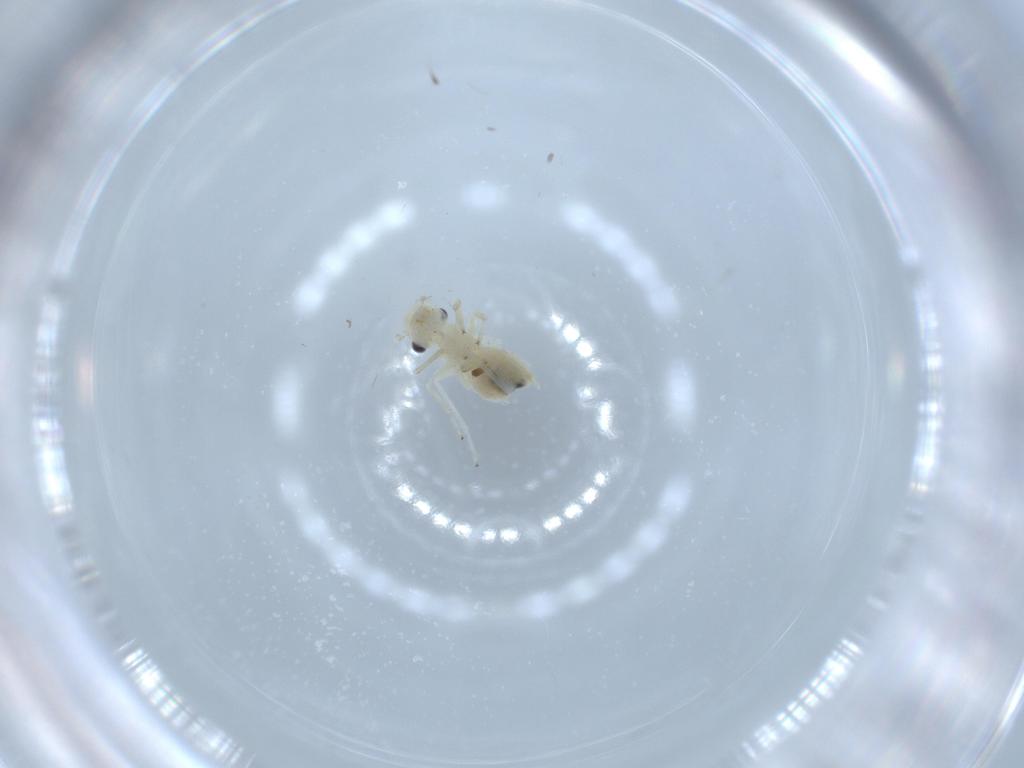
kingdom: Animalia
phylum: Arthropoda
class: Insecta
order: Psocodea
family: Caeciliusidae
